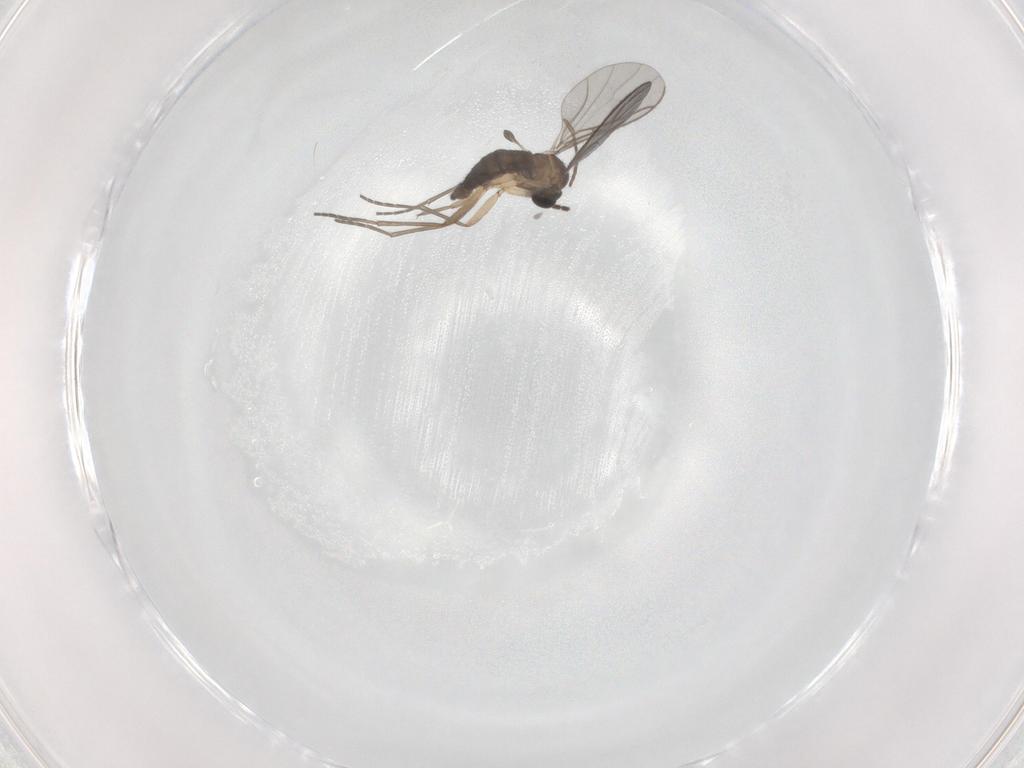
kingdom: Animalia
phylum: Arthropoda
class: Insecta
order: Diptera
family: Sciaridae
